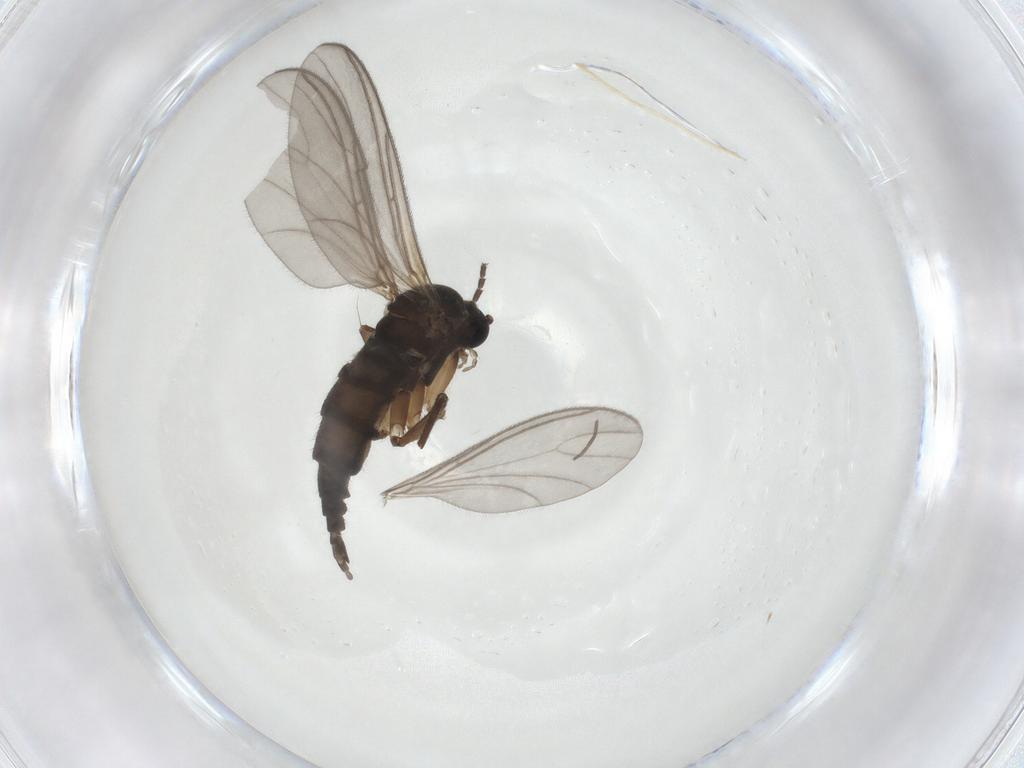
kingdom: Animalia
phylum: Arthropoda
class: Insecta
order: Diptera
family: Sciaridae
